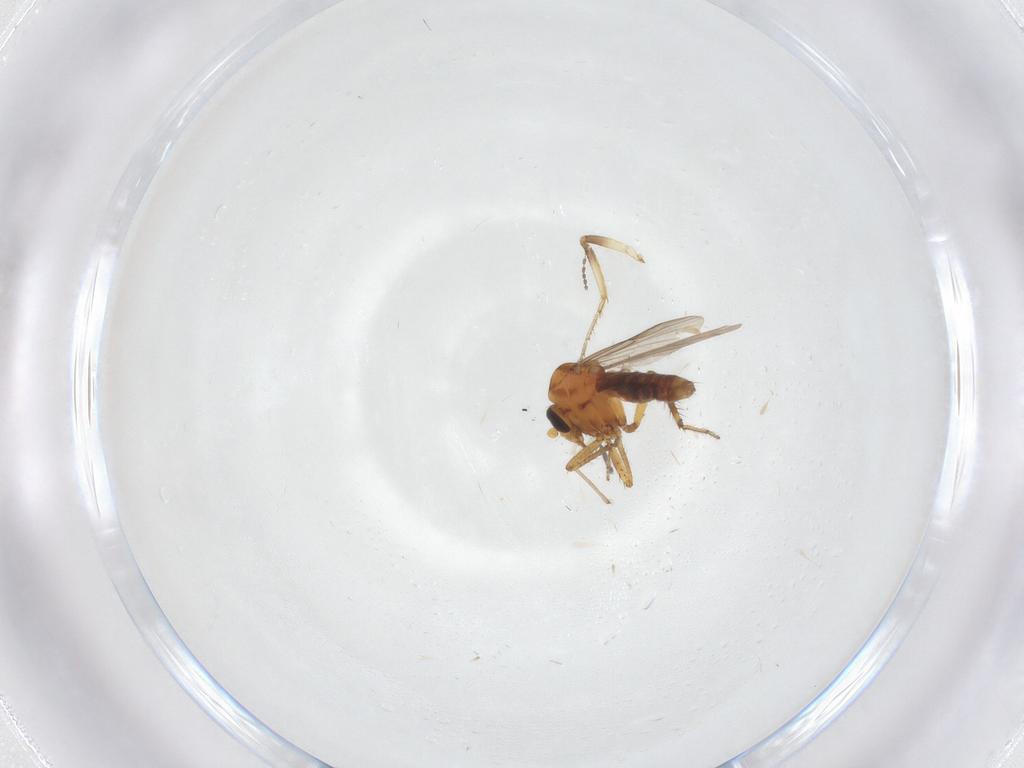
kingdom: Animalia
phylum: Arthropoda
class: Insecta
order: Diptera
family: Ceratopogonidae
